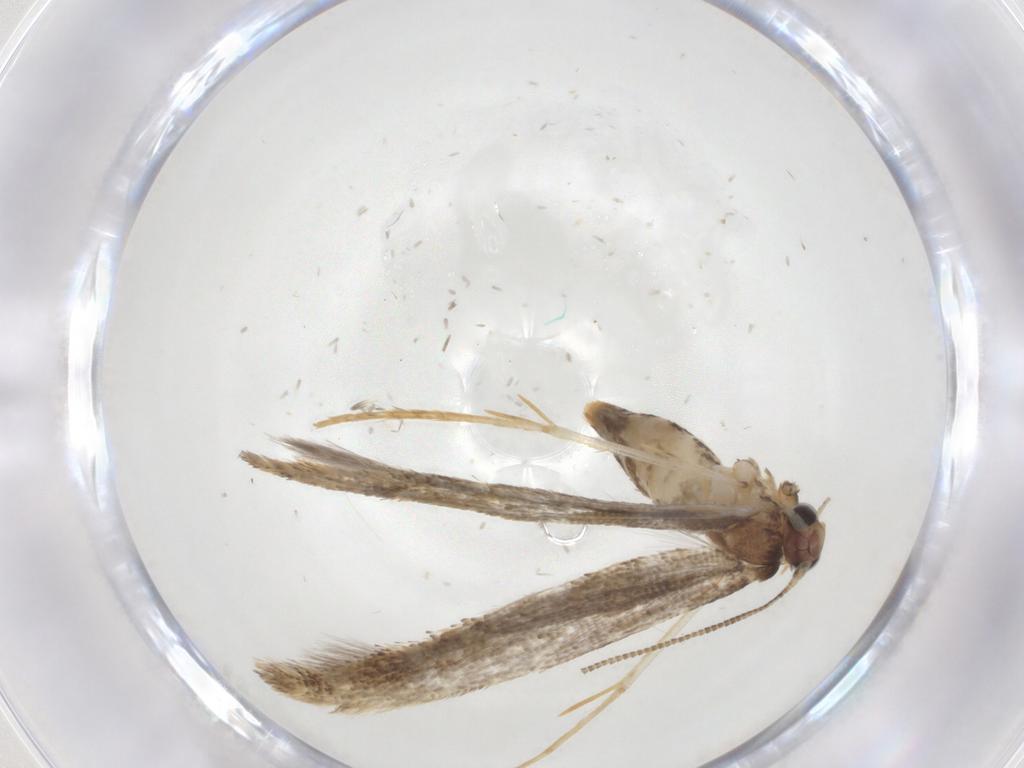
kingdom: Animalia
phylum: Arthropoda
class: Insecta
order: Lepidoptera
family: Tineidae
